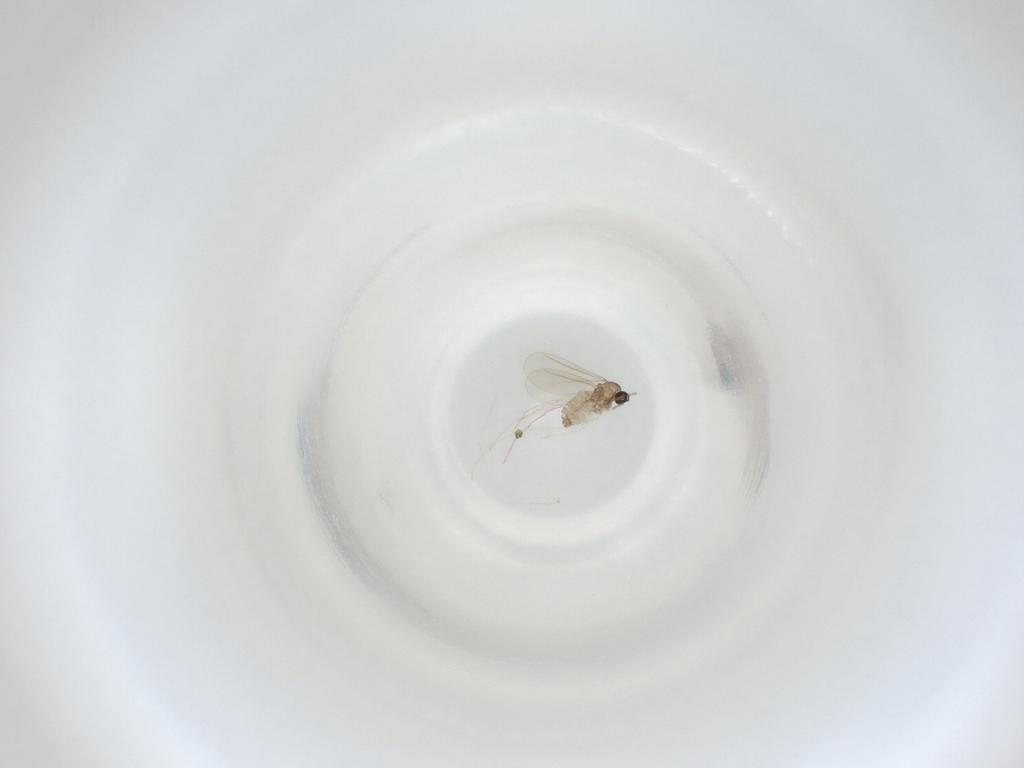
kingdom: Animalia
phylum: Arthropoda
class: Insecta
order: Diptera
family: Cecidomyiidae
